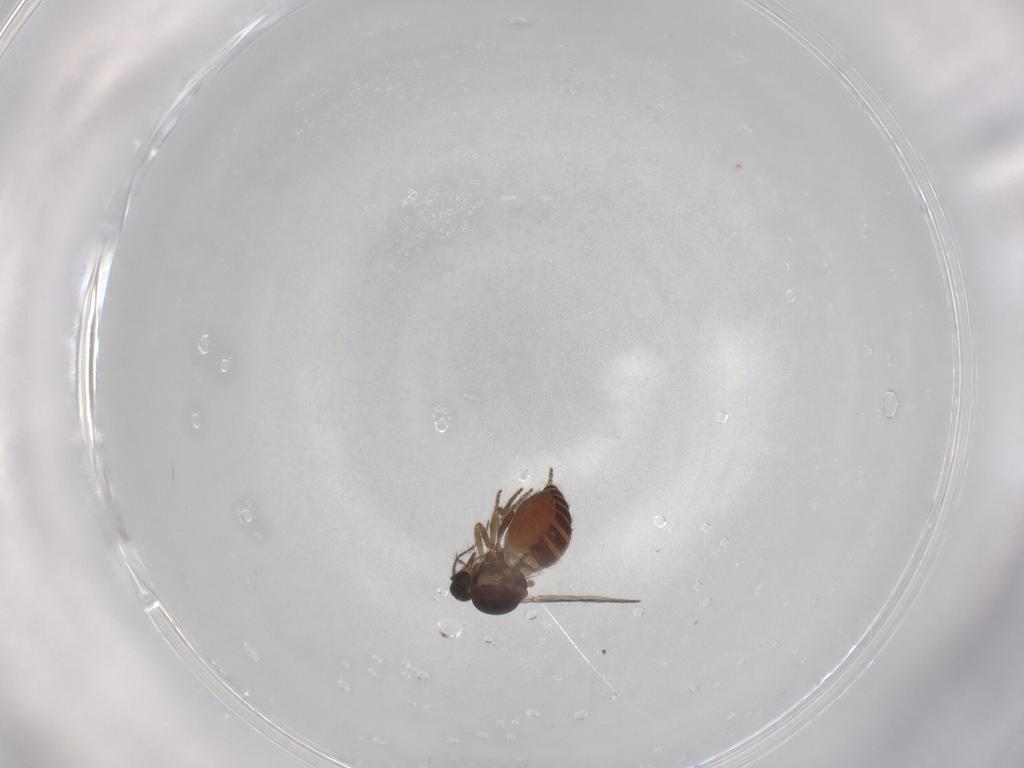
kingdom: Animalia
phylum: Arthropoda
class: Insecta
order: Diptera
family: Ceratopogonidae
